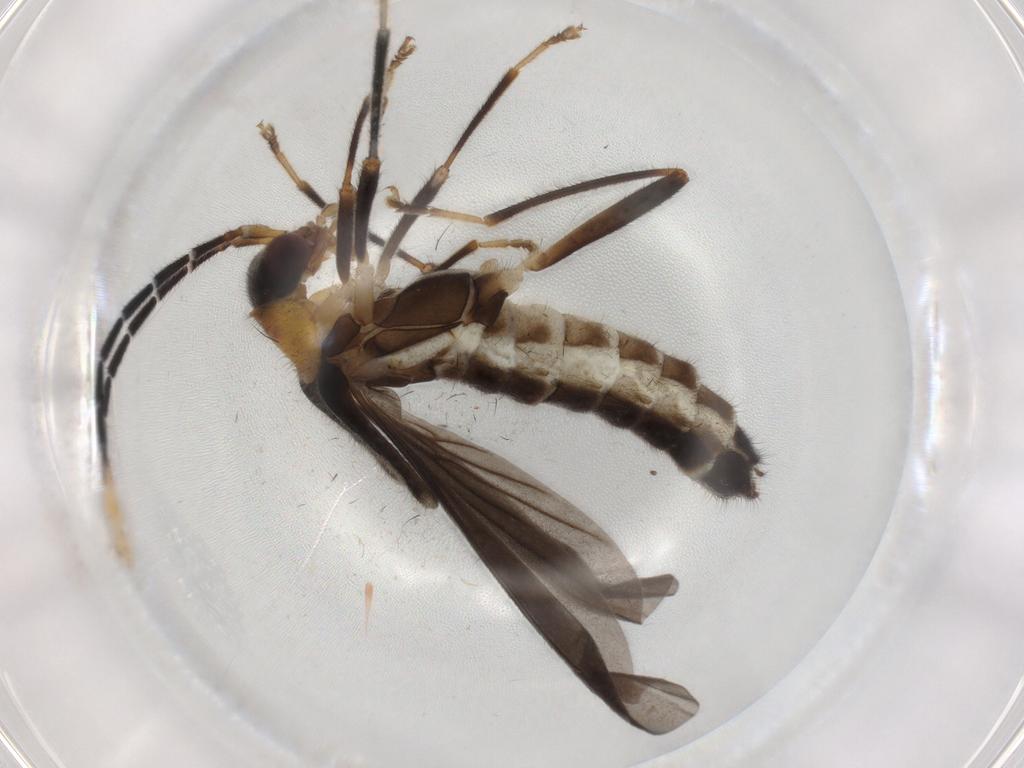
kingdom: Animalia
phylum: Arthropoda
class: Insecta
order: Coleoptera
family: Cantharidae
